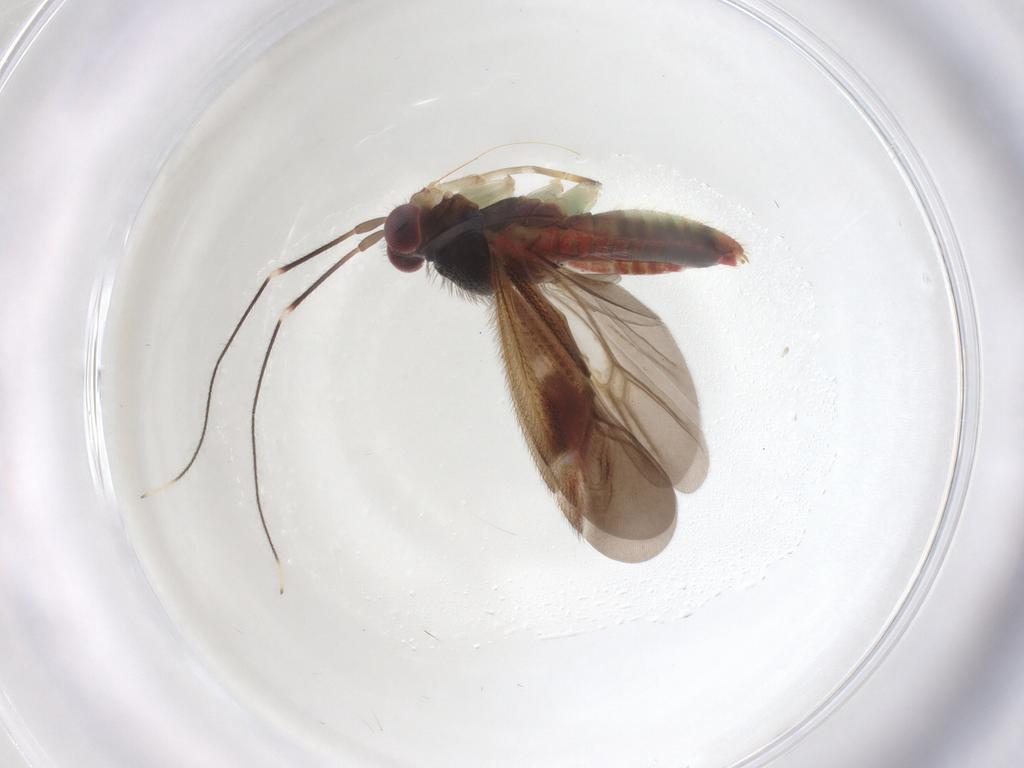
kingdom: Animalia
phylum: Arthropoda
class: Insecta
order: Hemiptera
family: Miridae
